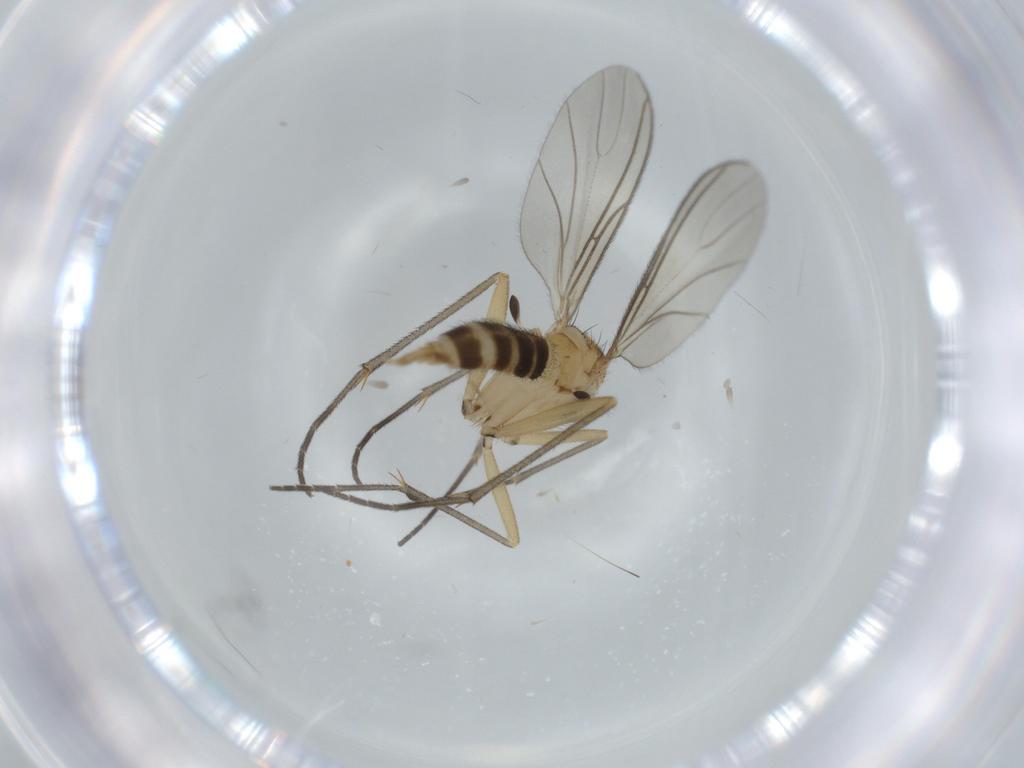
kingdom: Animalia
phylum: Arthropoda
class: Insecta
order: Diptera
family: Sciaridae
